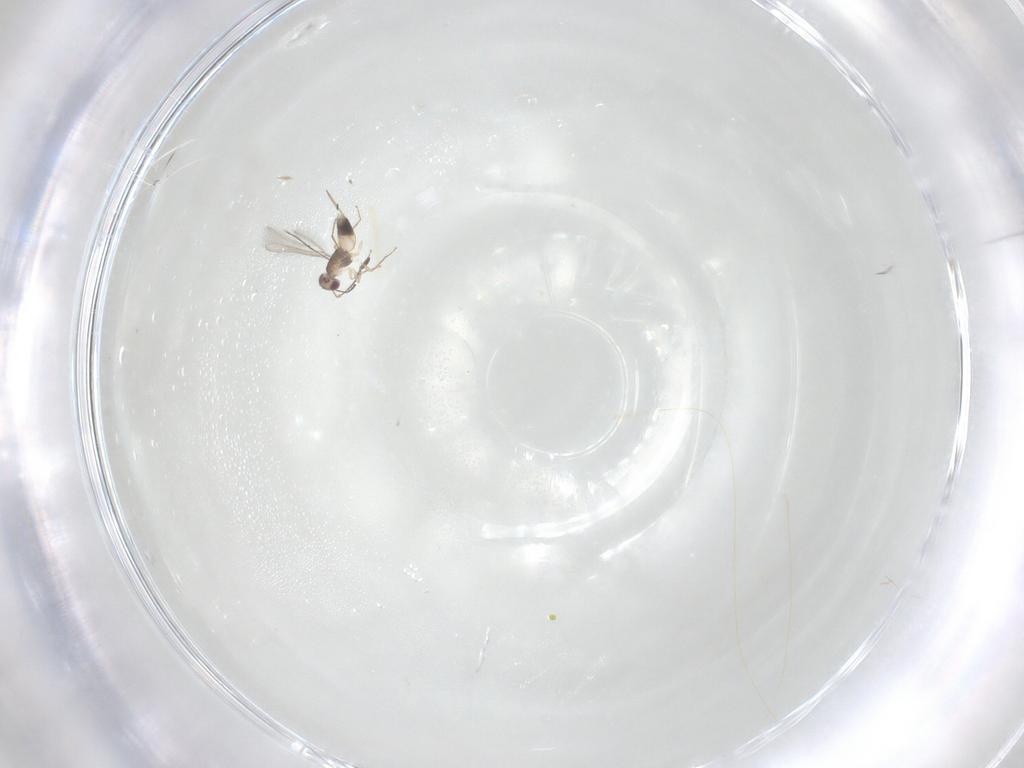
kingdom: Animalia
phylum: Arthropoda
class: Insecta
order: Hymenoptera
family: Mymaridae
